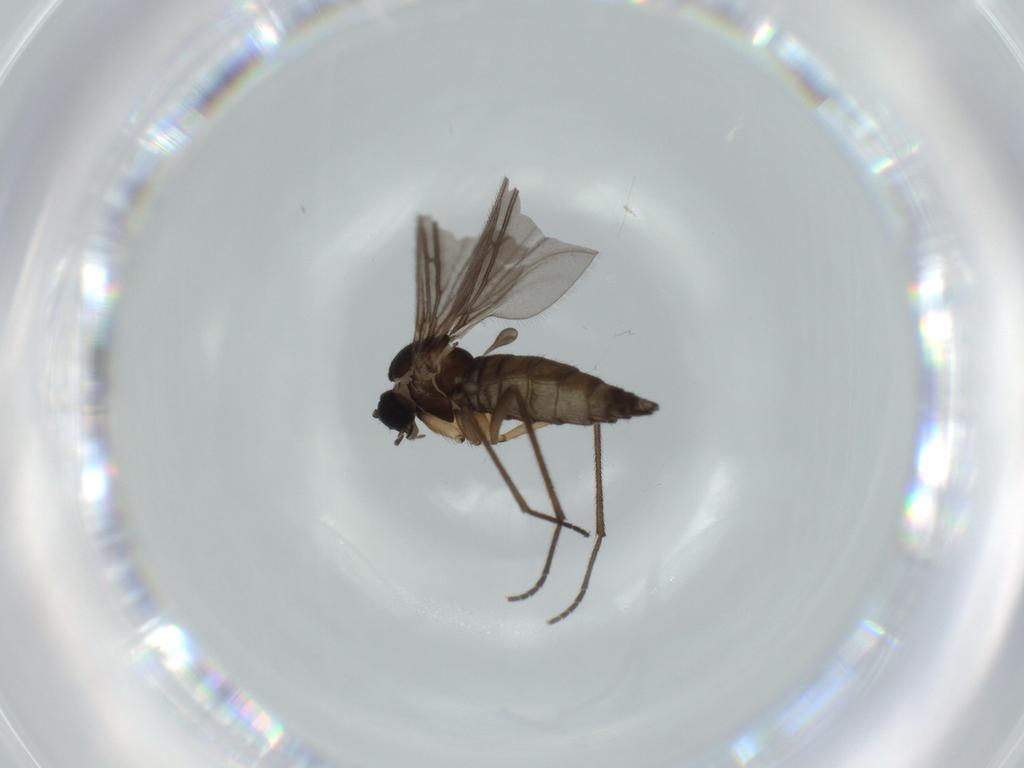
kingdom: Animalia
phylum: Arthropoda
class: Insecta
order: Diptera
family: Sciaridae
